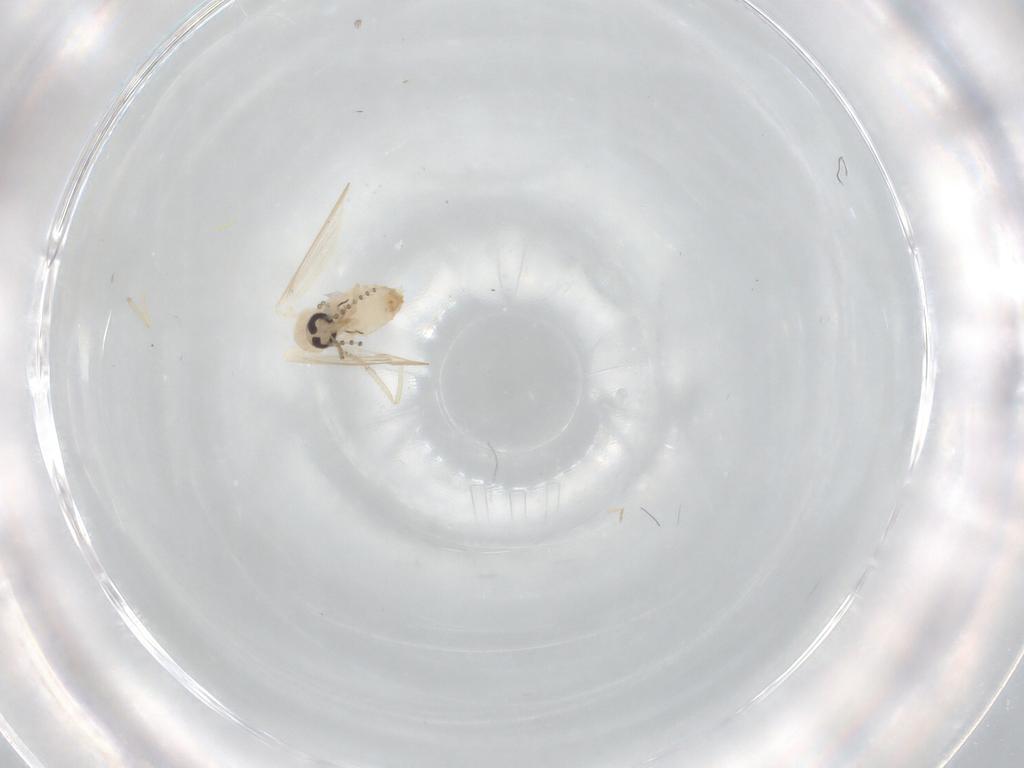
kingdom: Animalia
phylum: Arthropoda
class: Insecta
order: Diptera
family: Psychodidae
